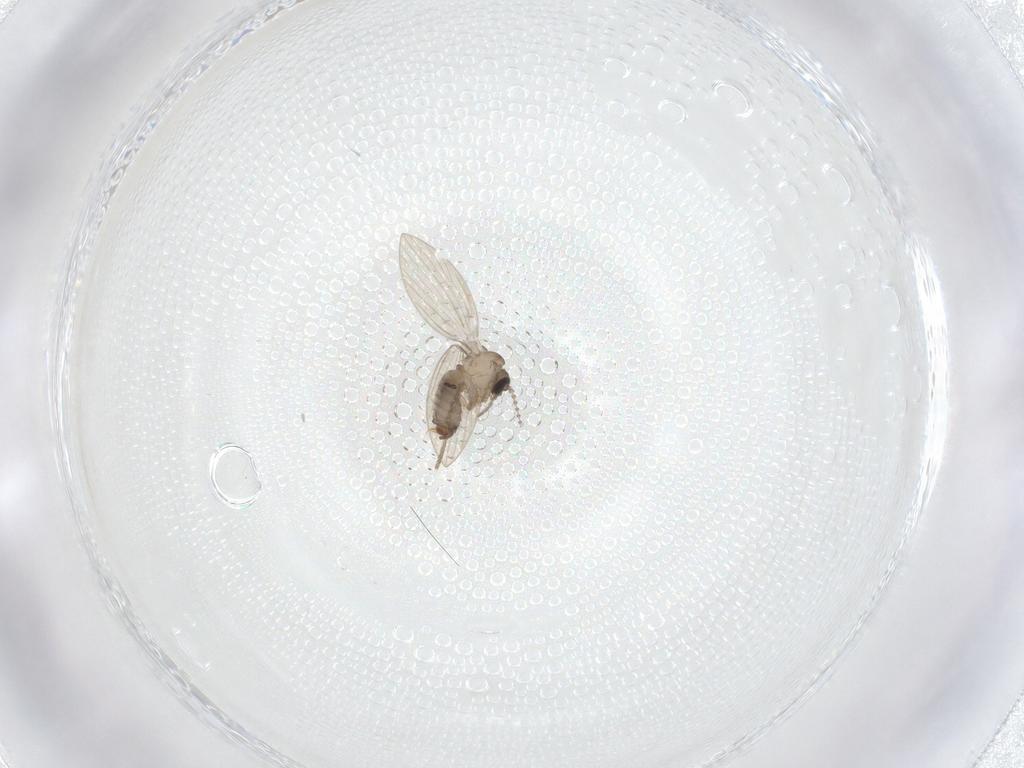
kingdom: Animalia
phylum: Arthropoda
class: Insecta
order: Diptera
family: Psychodidae
